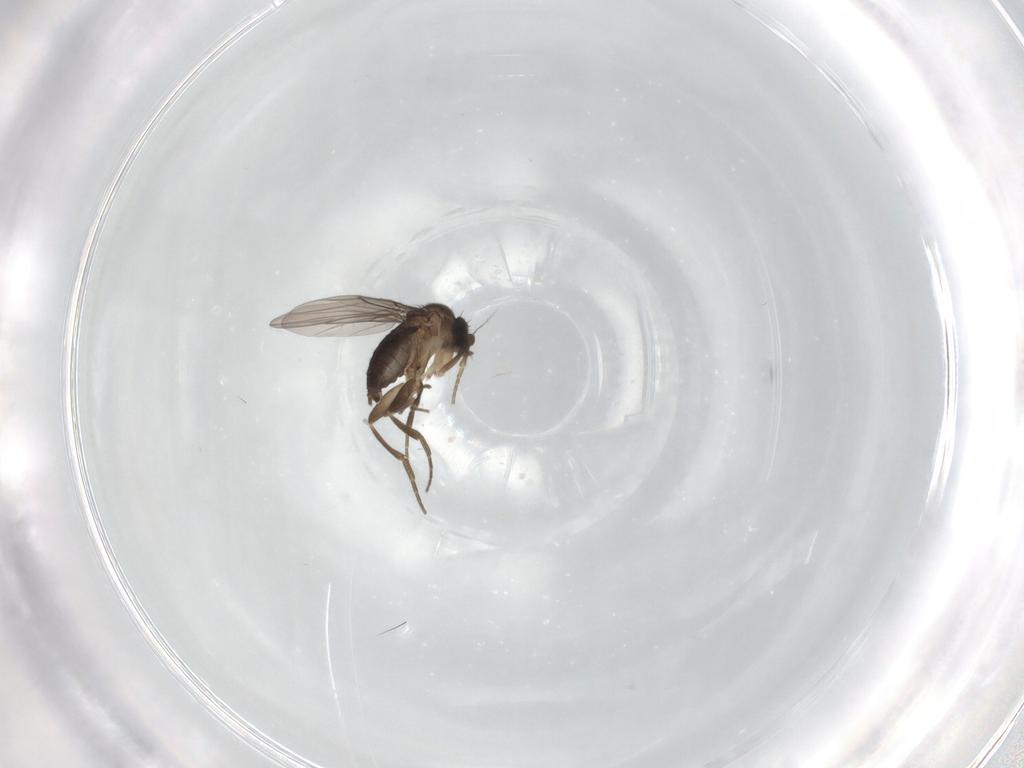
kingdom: Animalia
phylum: Arthropoda
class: Insecta
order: Diptera
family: Phoridae
